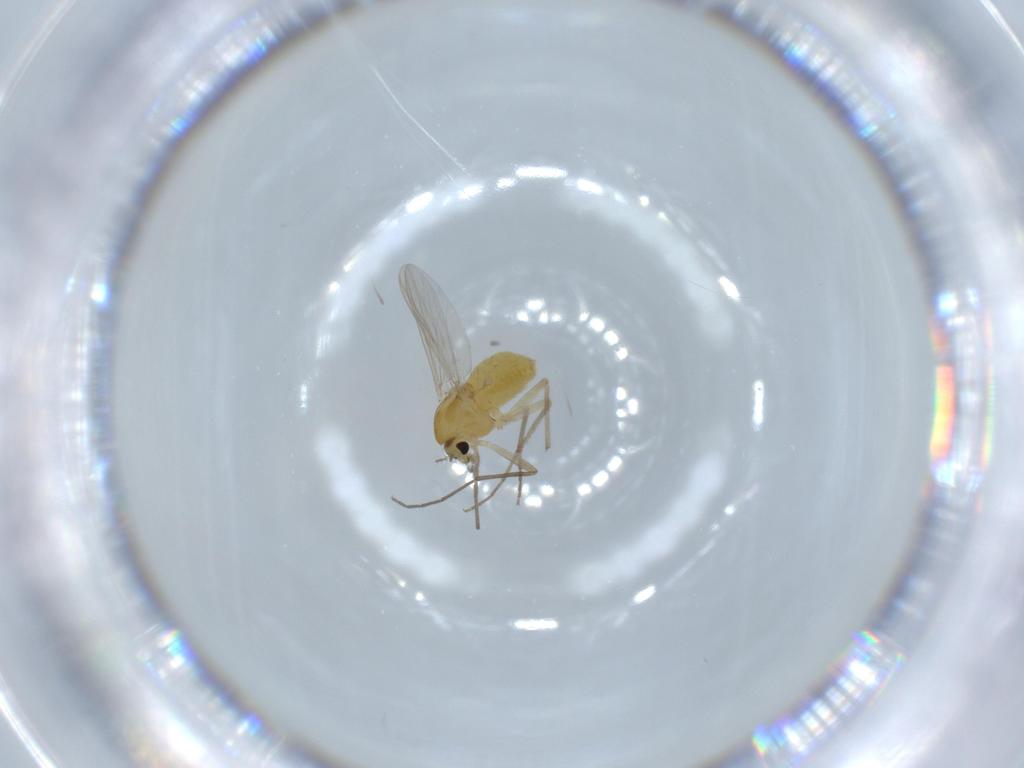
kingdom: Animalia
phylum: Arthropoda
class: Insecta
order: Diptera
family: Chironomidae
